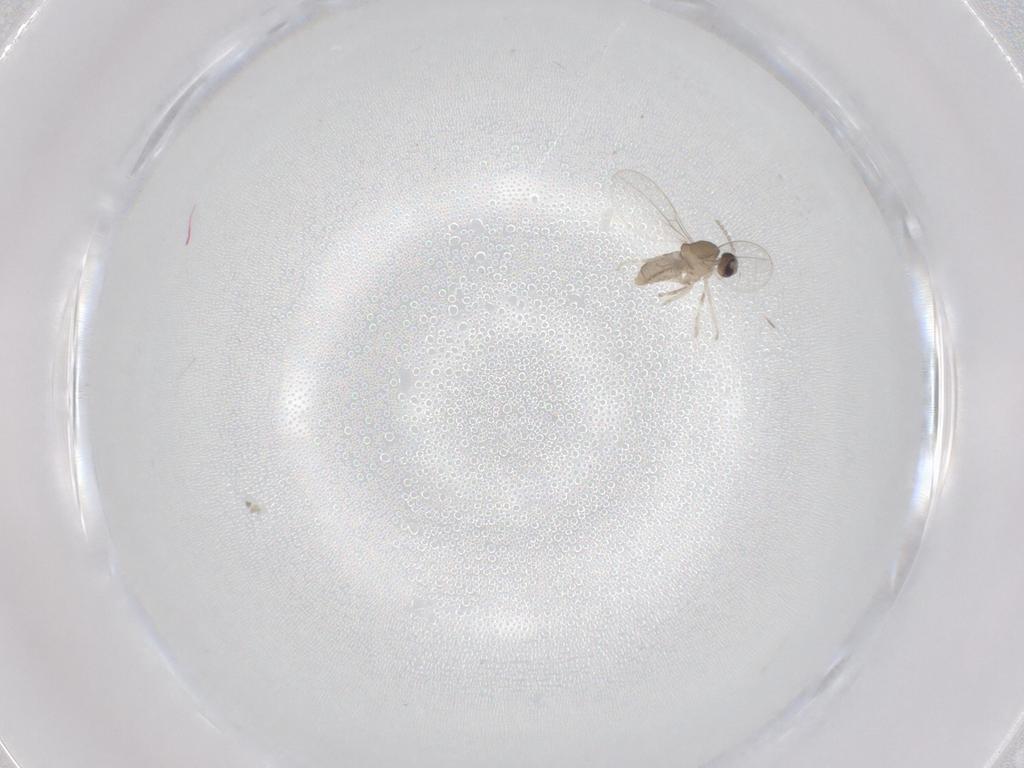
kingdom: Animalia
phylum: Arthropoda
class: Insecta
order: Diptera
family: Cecidomyiidae
